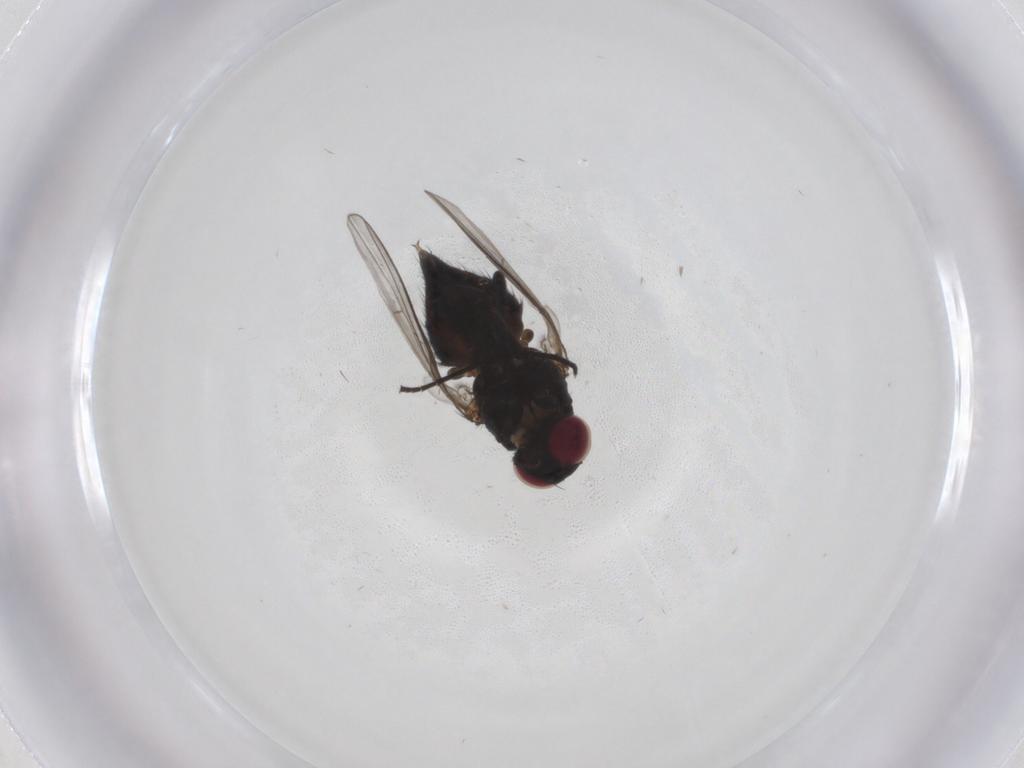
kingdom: Animalia
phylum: Arthropoda
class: Insecta
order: Diptera
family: Agromyzidae
